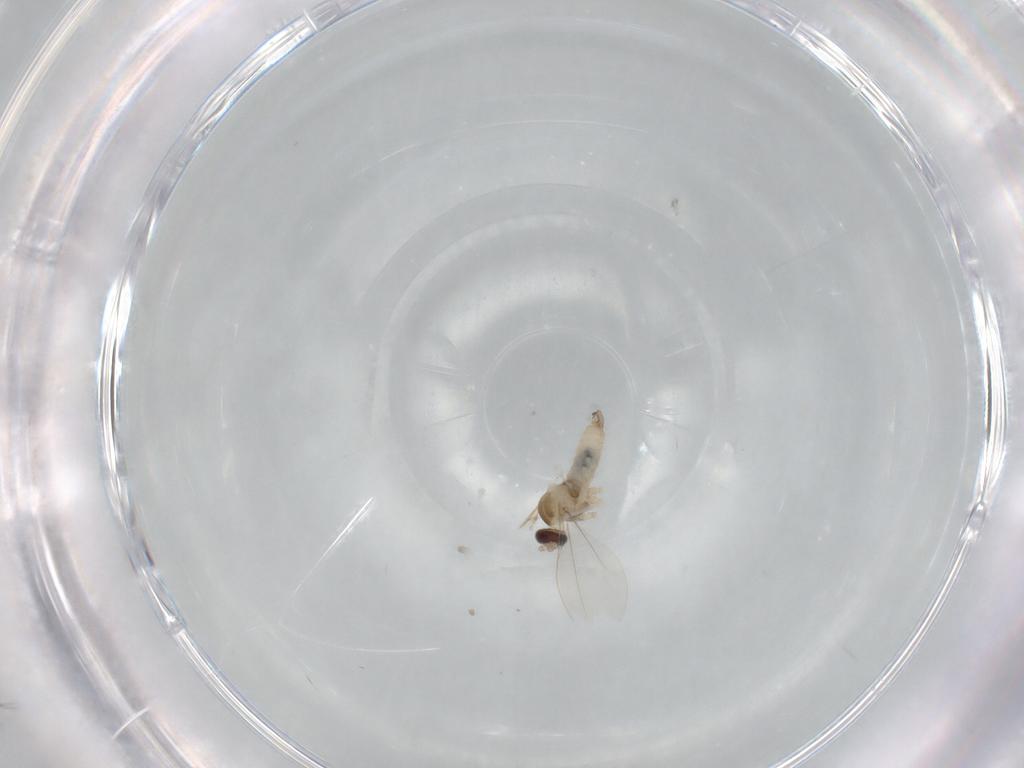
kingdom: Animalia
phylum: Arthropoda
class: Insecta
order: Diptera
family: Cecidomyiidae
